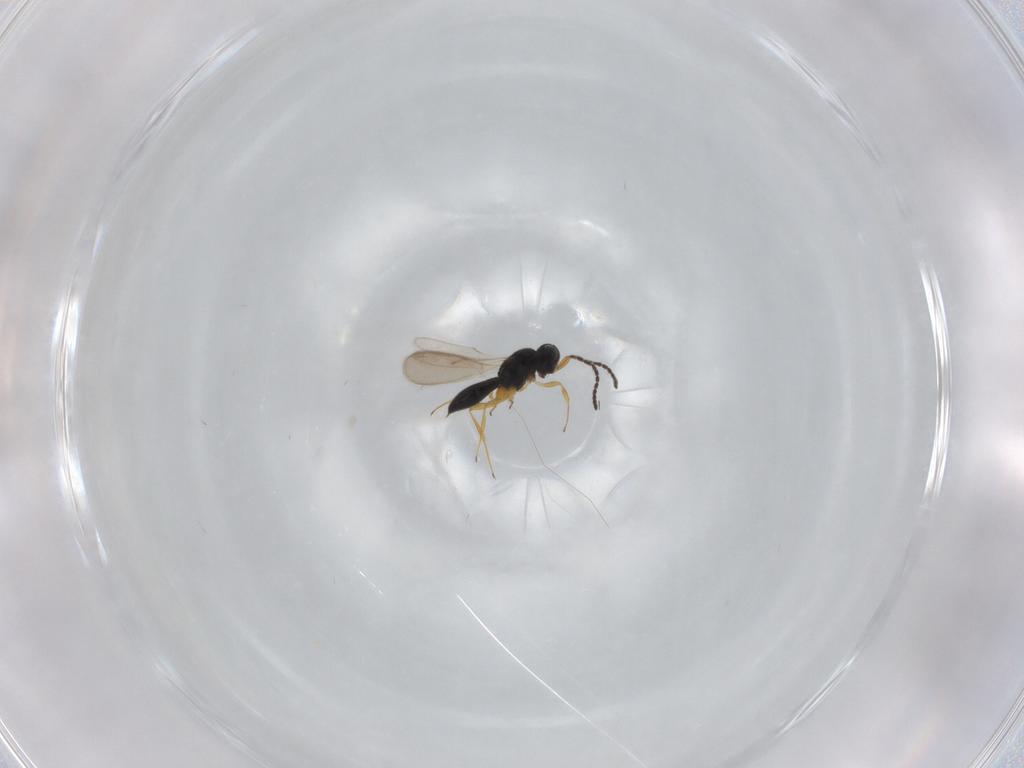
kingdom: Animalia
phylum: Arthropoda
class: Insecta
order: Hymenoptera
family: Scelionidae
